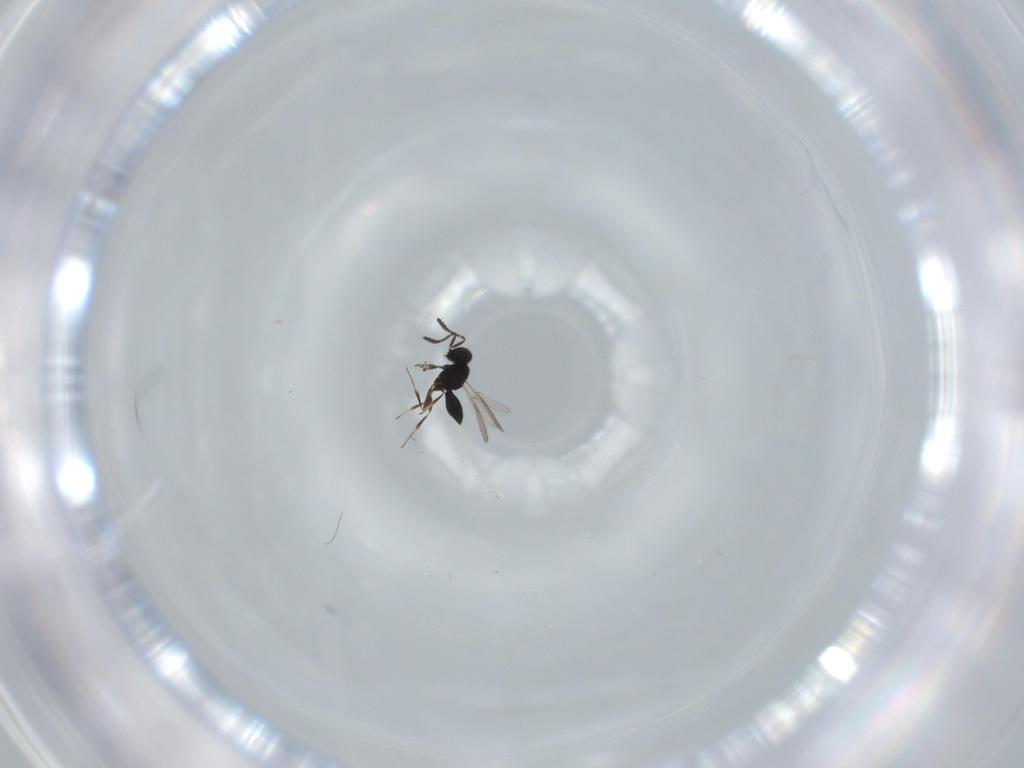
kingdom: Animalia
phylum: Arthropoda
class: Insecta
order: Hymenoptera
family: Scelionidae
